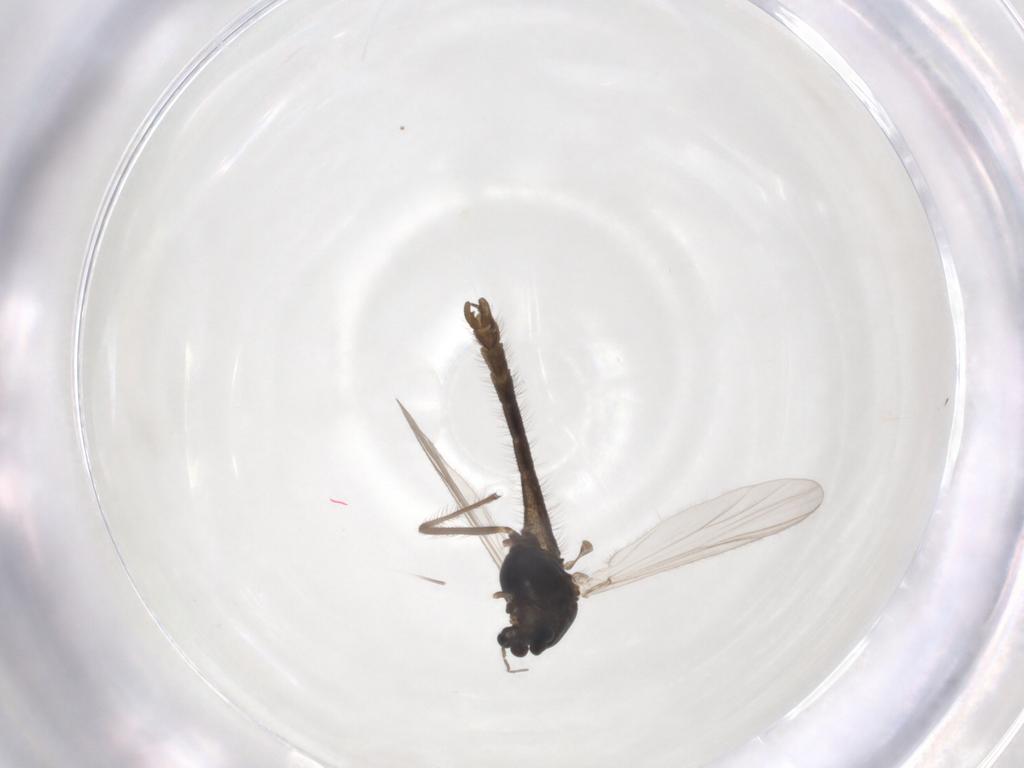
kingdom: Animalia
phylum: Arthropoda
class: Insecta
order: Diptera
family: Chironomidae
